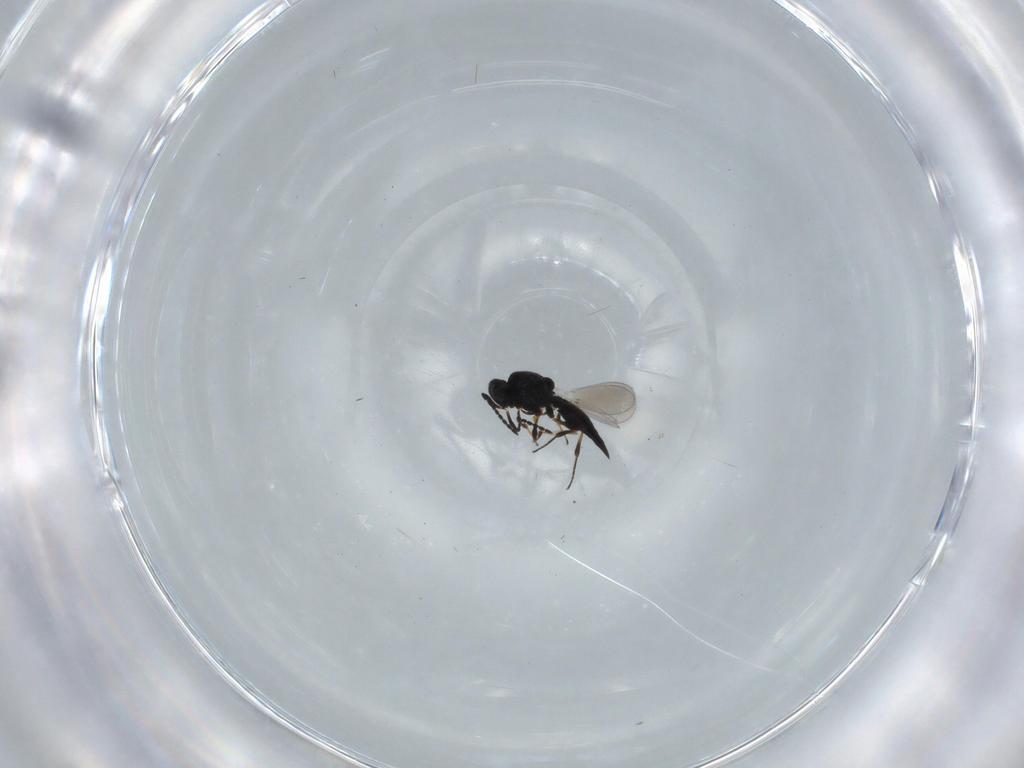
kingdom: Animalia
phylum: Arthropoda
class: Insecta
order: Hymenoptera
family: Platygastridae
